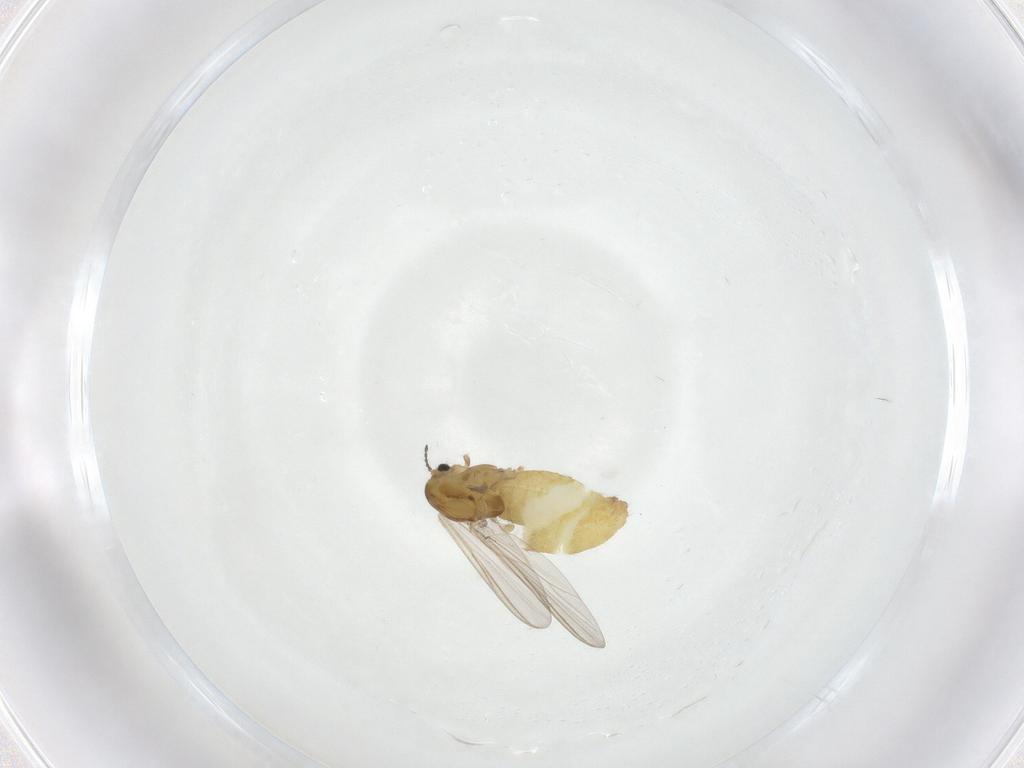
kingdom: Animalia
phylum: Arthropoda
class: Insecta
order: Diptera
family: Chironomidae
